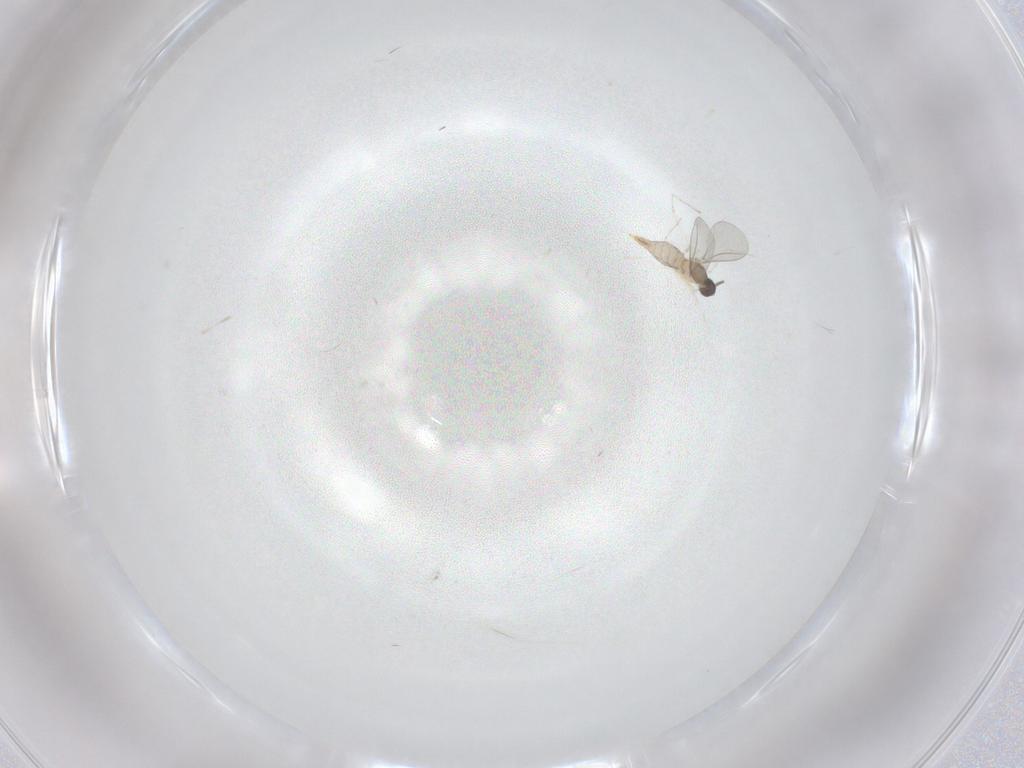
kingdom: Animalia
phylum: Arthropoda
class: Insecta
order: Diptera
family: Cecidomyiidae
